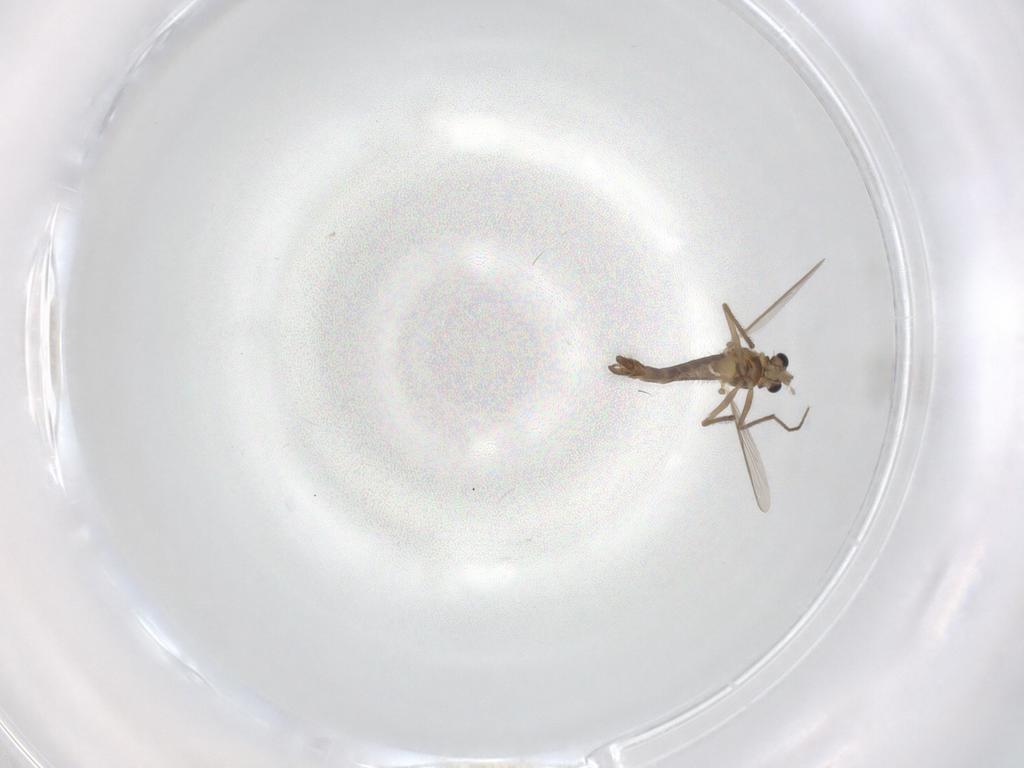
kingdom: Animalia
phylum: Arthropoda
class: Insecta
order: Diptera
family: Chironomidae
